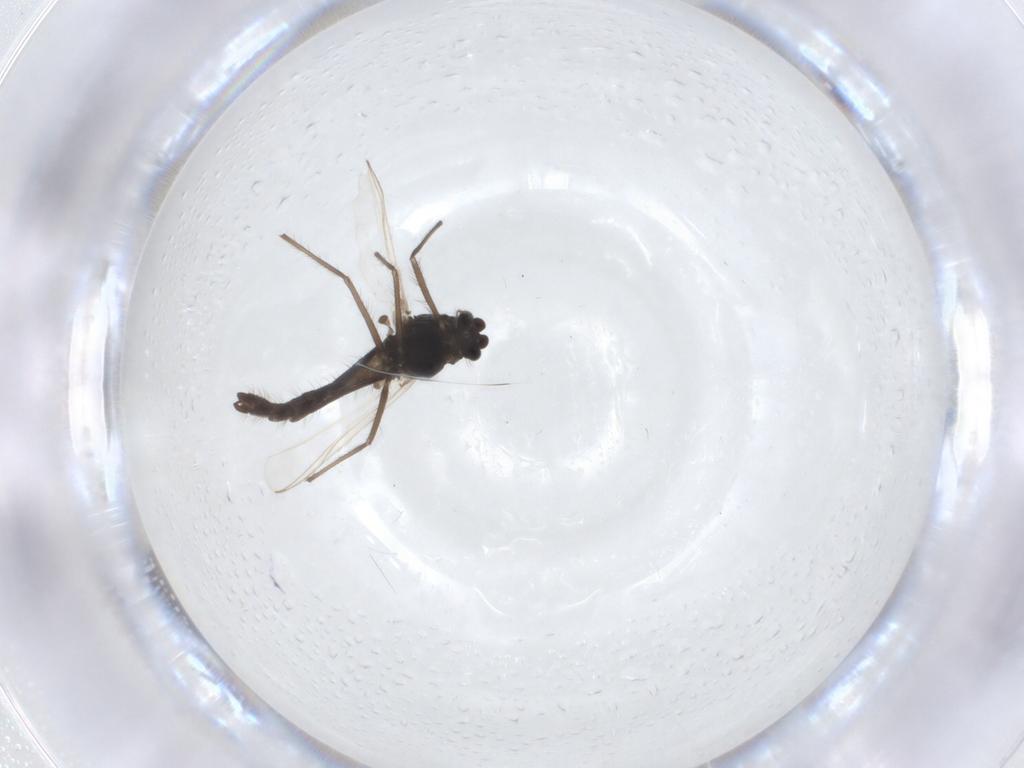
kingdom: Animalia
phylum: Arthropoda
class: Insecta
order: Diptera
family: Chironomidae
